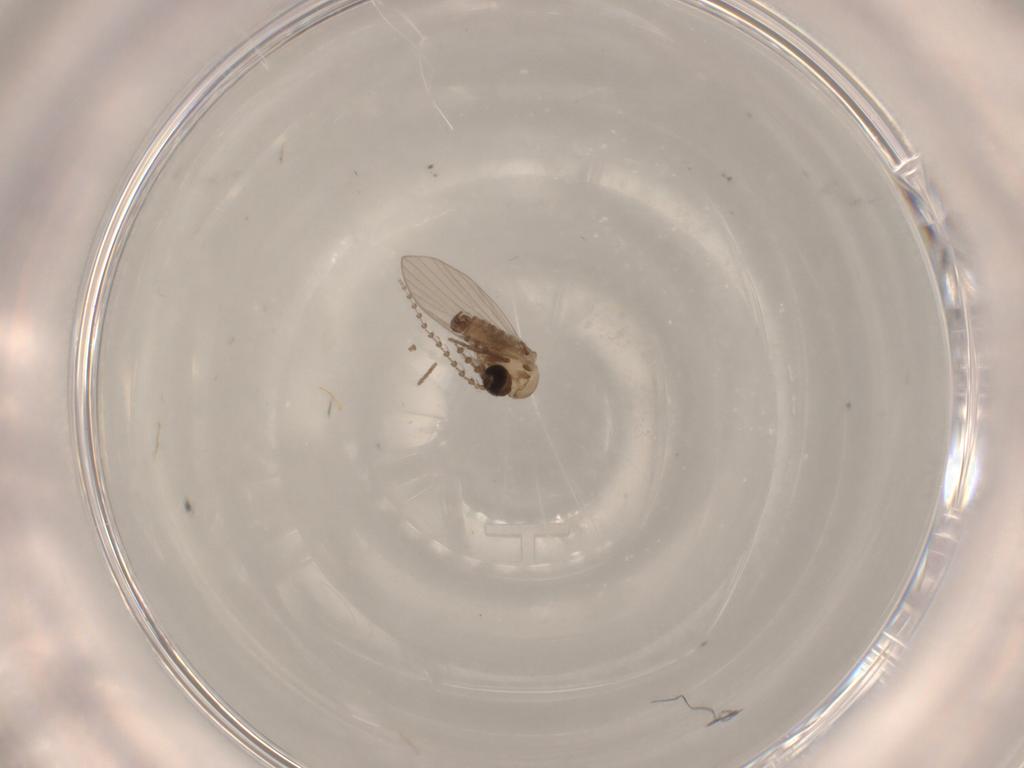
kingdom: Animalia
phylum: Arthropoda
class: Insecta
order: Diptera
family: Psychodidae
